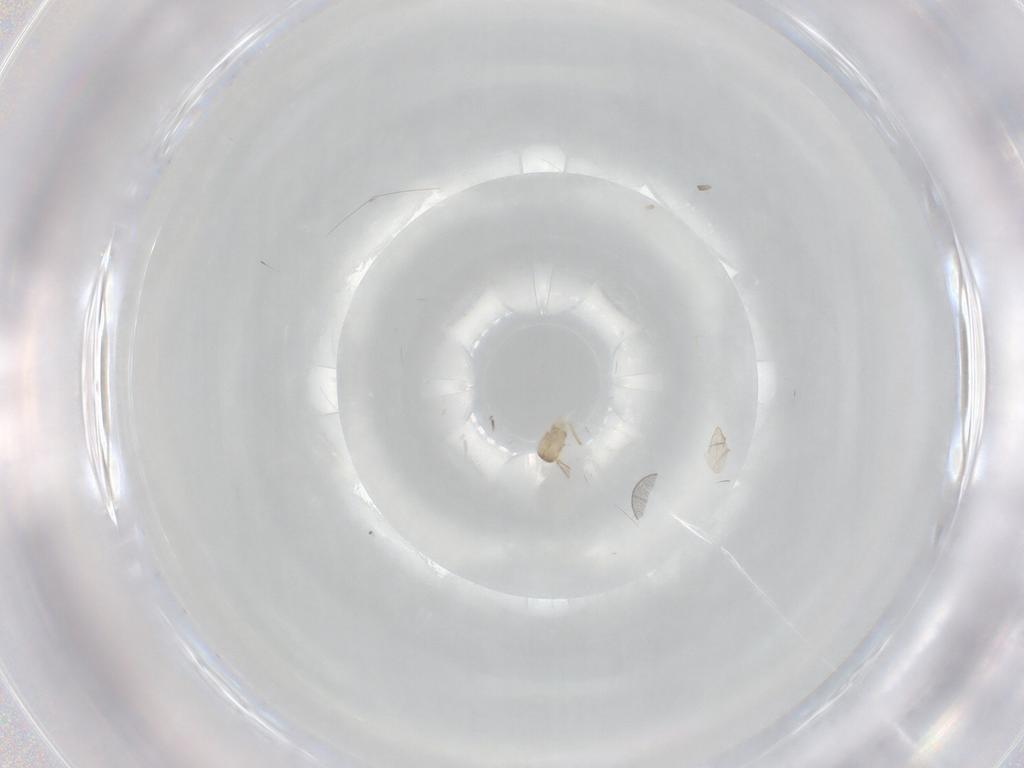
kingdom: Animalia
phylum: Arthropoda
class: Insecta
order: Diptera
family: Cecidomyiidae
